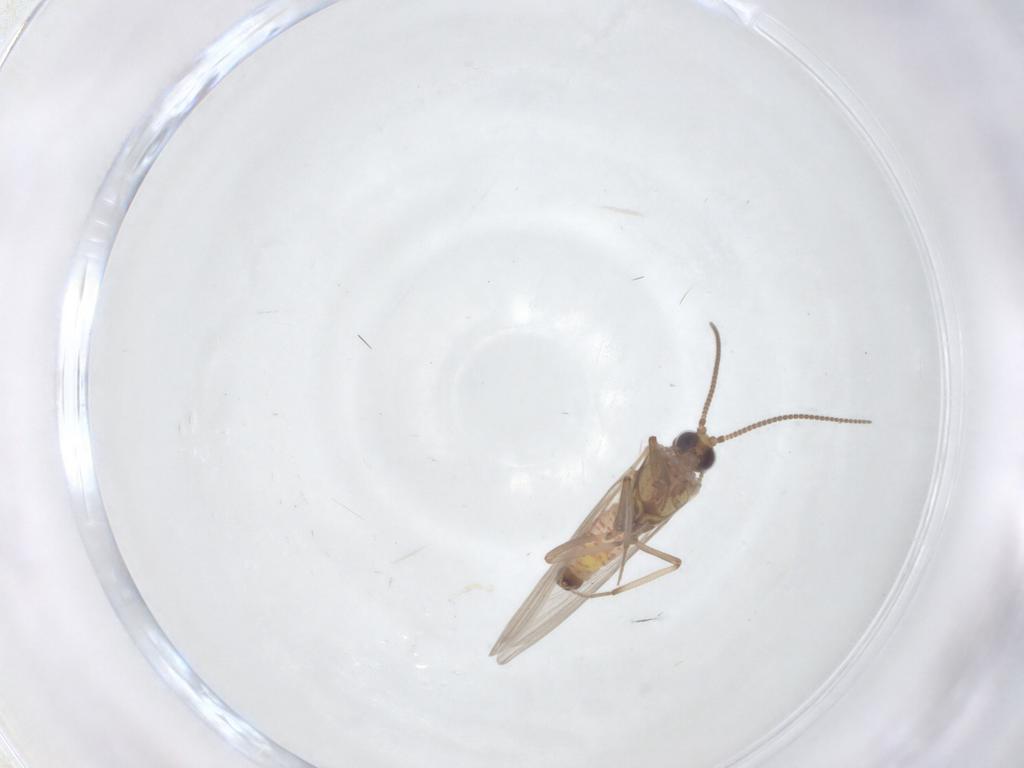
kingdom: Animalia
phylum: Arthropoda
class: Insecta
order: Neuroptera
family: Coniopterygidae
